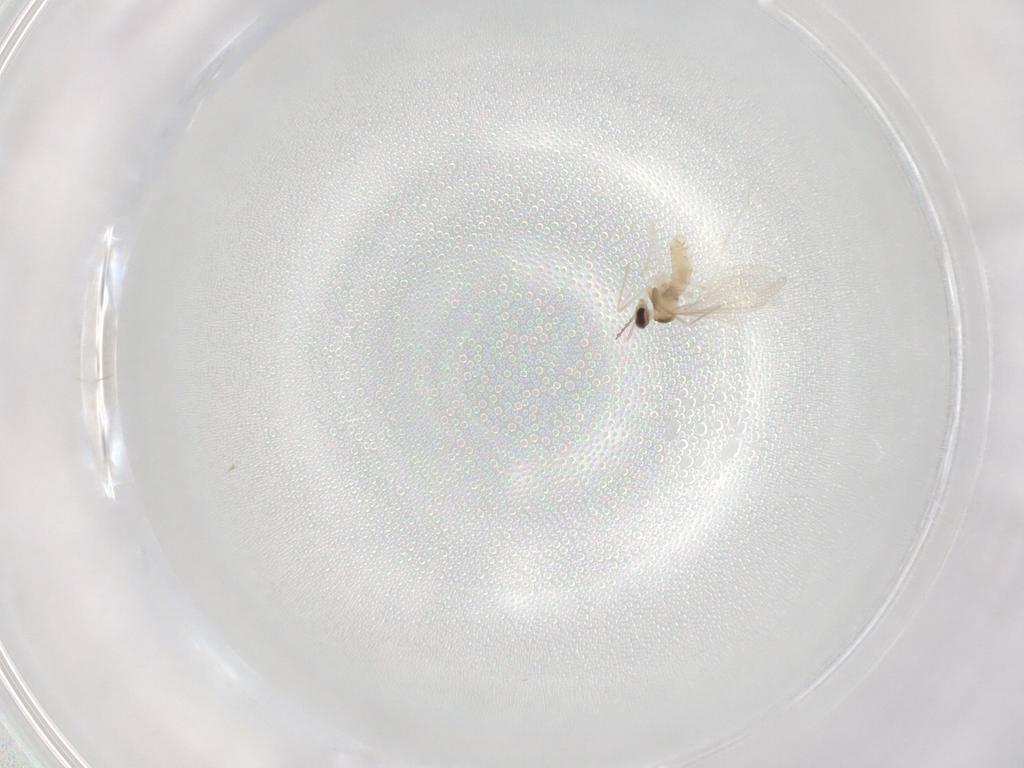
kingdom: Animalia
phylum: Arthropoda
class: Insecta
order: Diptera
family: Cecidomyiidae
